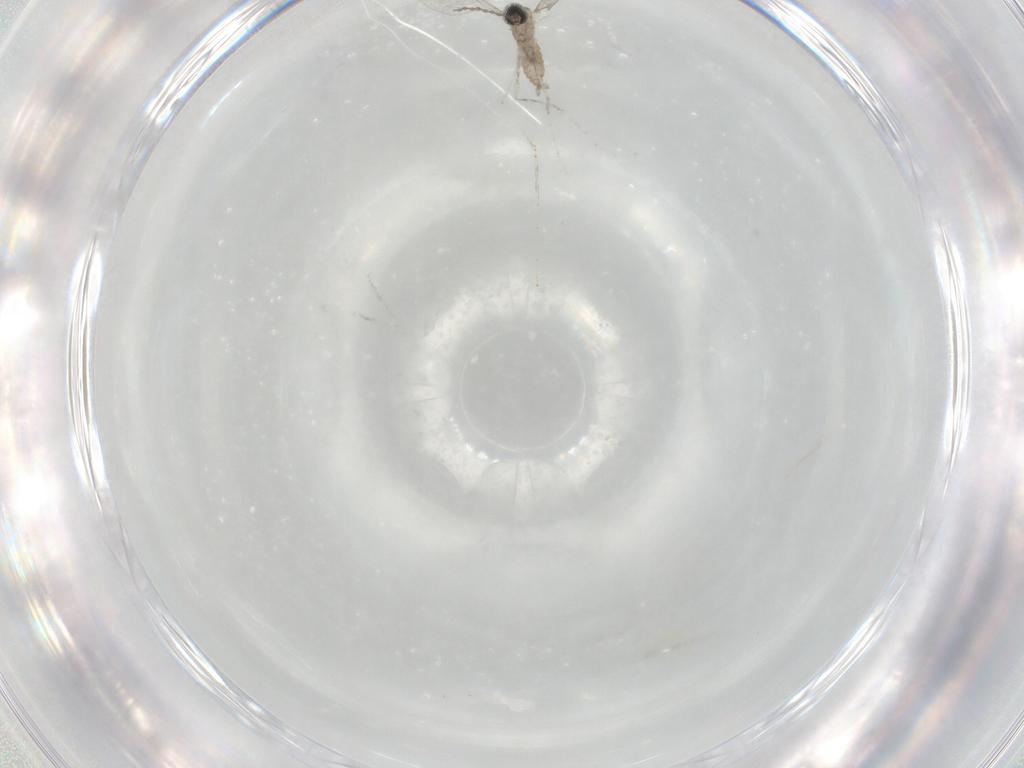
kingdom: Animalia
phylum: Arthropoda
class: Insecta
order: Diptera
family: Cecidomyiidae
